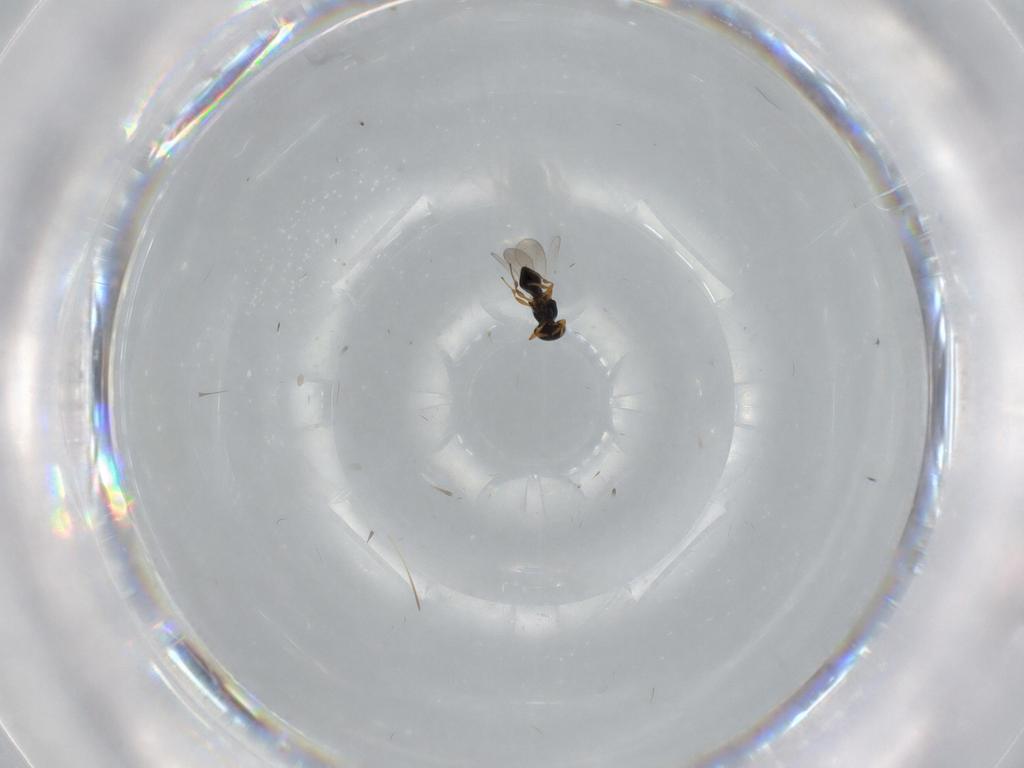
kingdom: Animalia
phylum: Arthropoda
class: Insecta
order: Hymenoptera
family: Platygastridae
